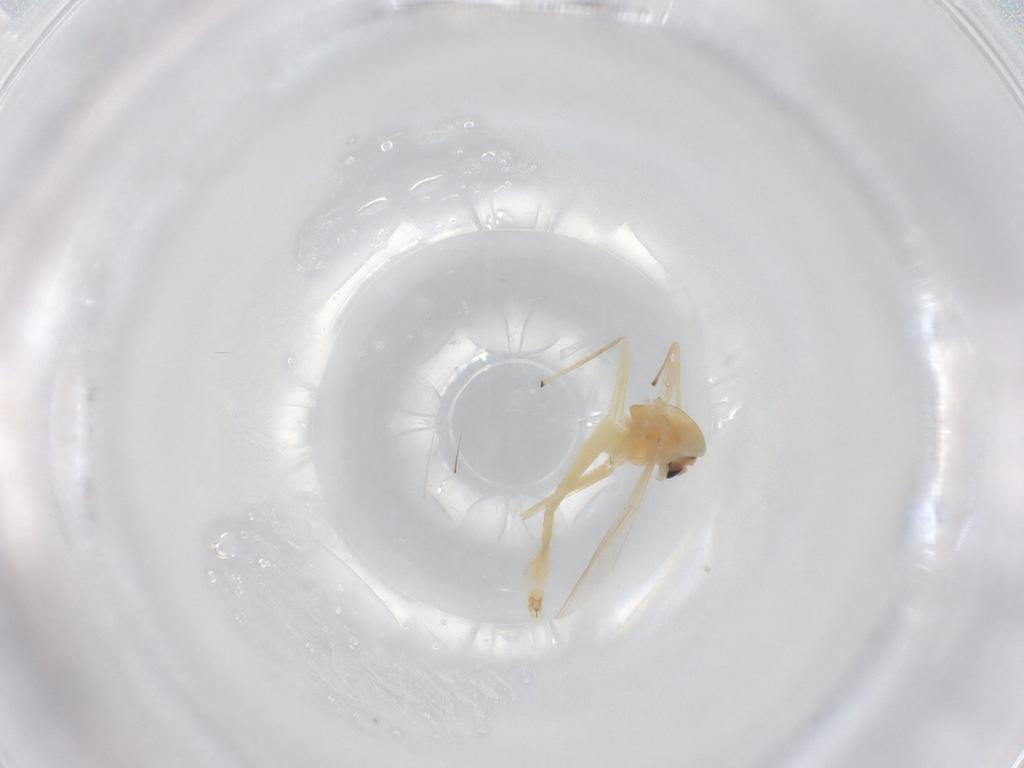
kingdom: Animalia
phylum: Arthropoda
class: Insecta
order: Diptera
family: Chironomidae
